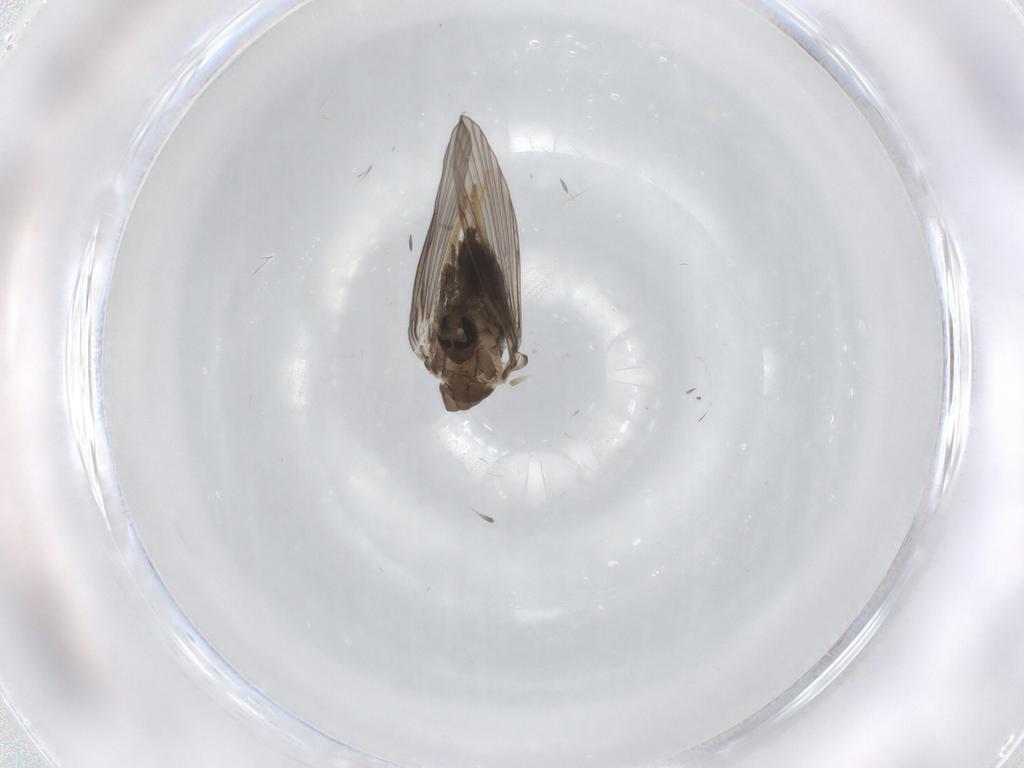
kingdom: Animalia
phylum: Arthropoda
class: Insecta
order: Diptera
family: Psychodidae
